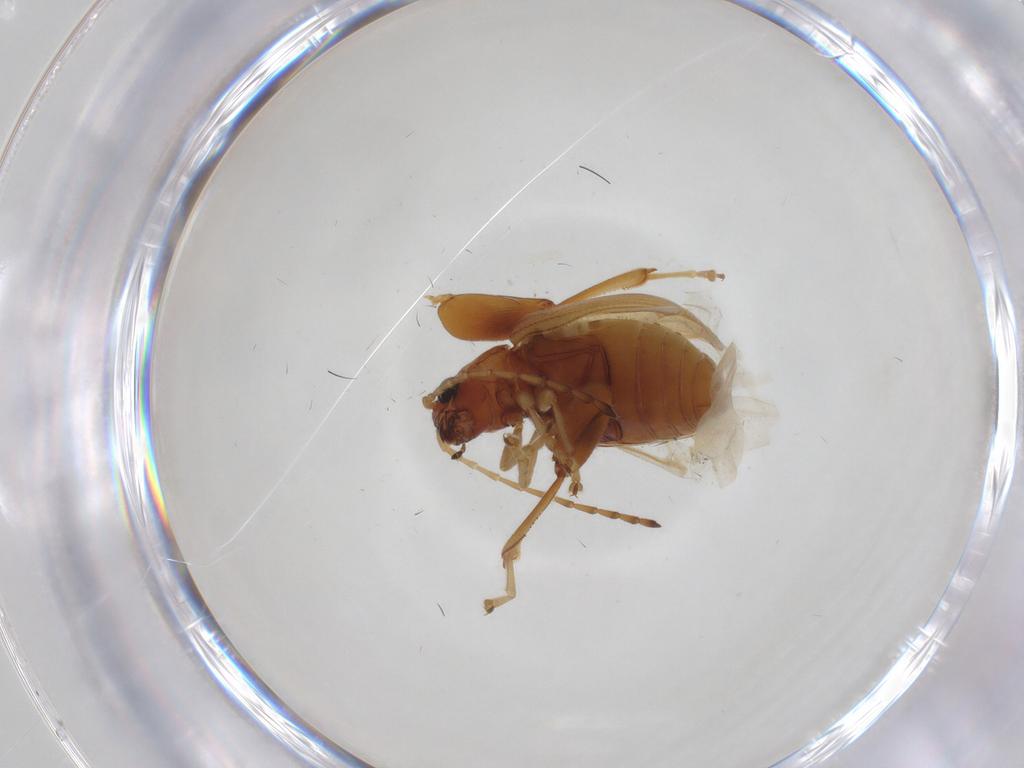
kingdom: Animalia
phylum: Arthropoda
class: Insecta
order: Coleoptera
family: Chrysomelidae
